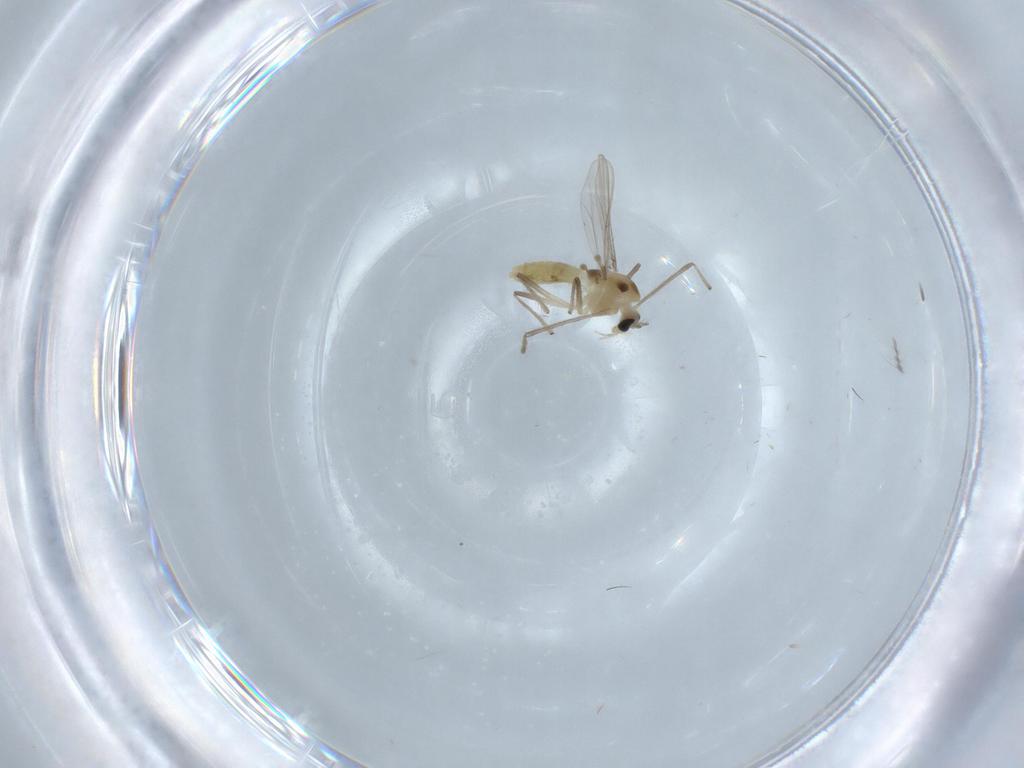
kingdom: Animalia
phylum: Arthropoda
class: Insecta
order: Diptera
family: Chironomidae
